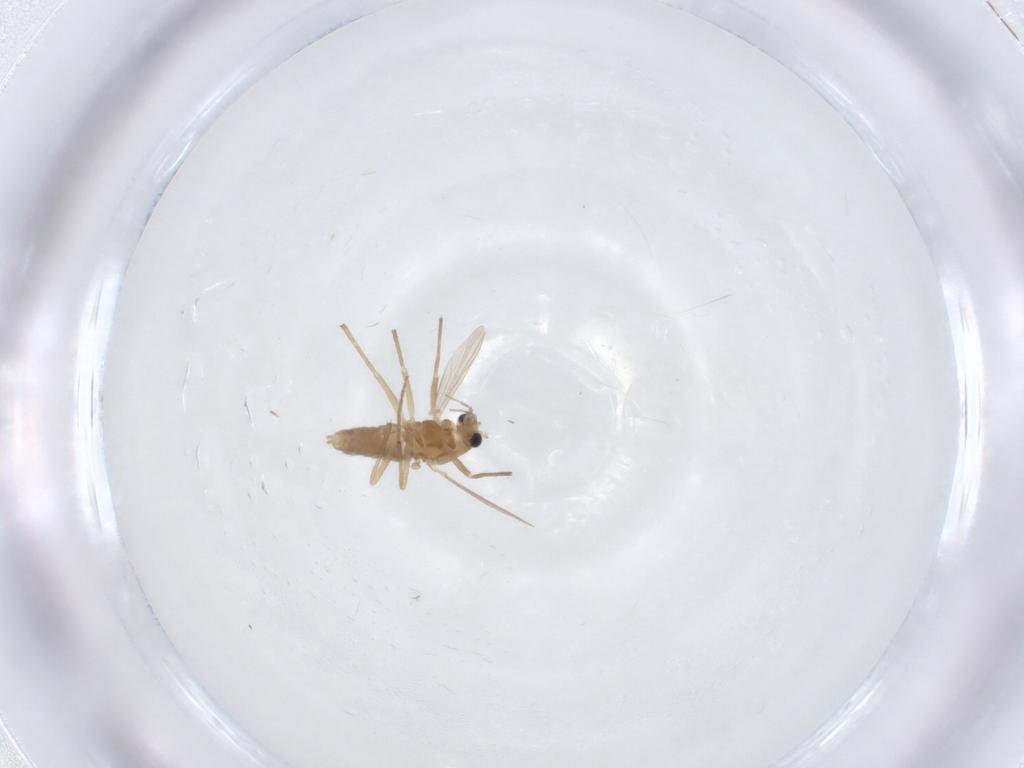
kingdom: Animalia
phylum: Arthropoda
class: Insecta
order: Diptera
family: Chironomidae
